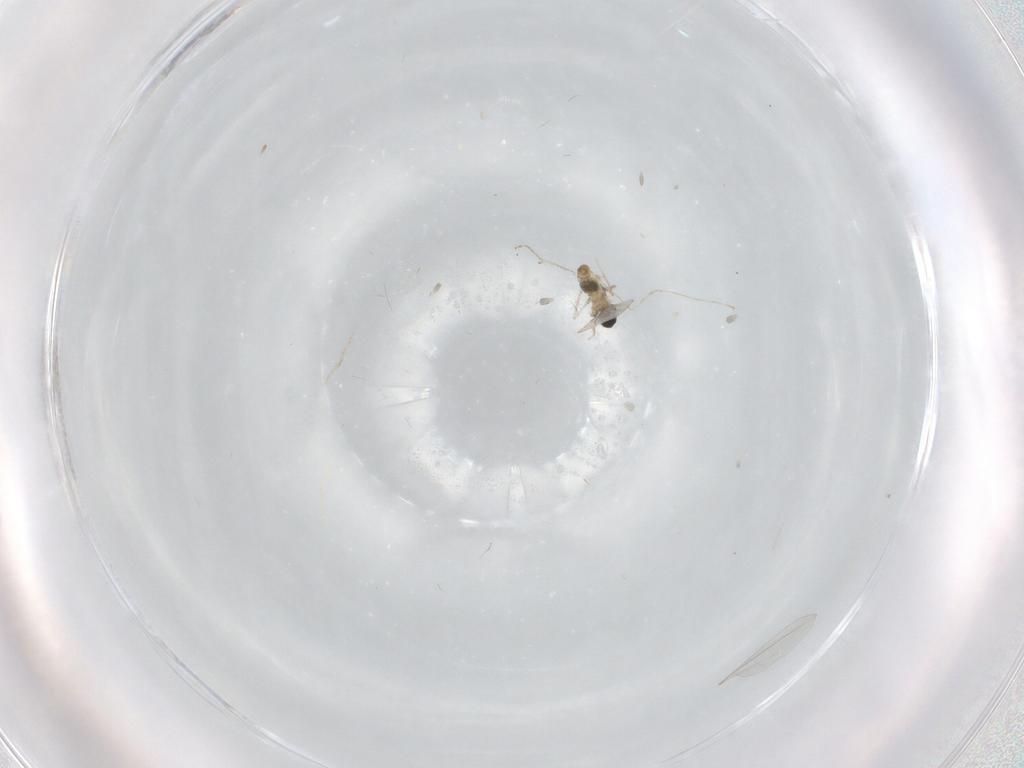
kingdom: Animalia
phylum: Arthropoda
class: Insecta
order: Diptera
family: Cecidomyiidae
